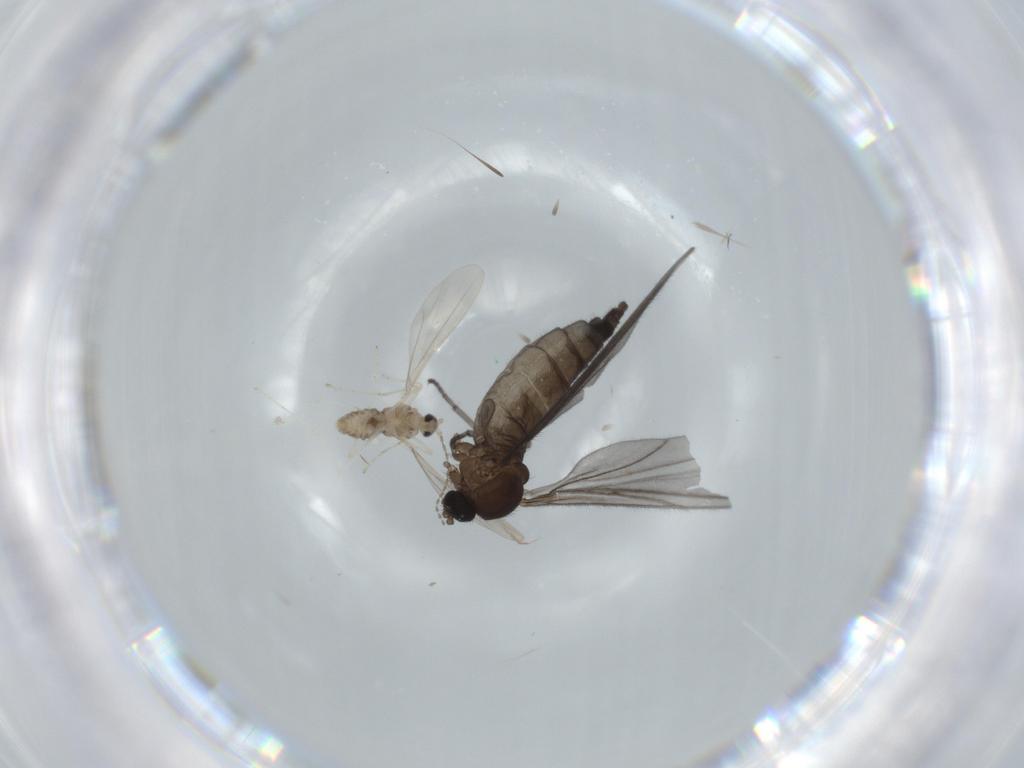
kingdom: Animalia
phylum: Arthropoda
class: Insecta
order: Diptera
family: Sciaridae
